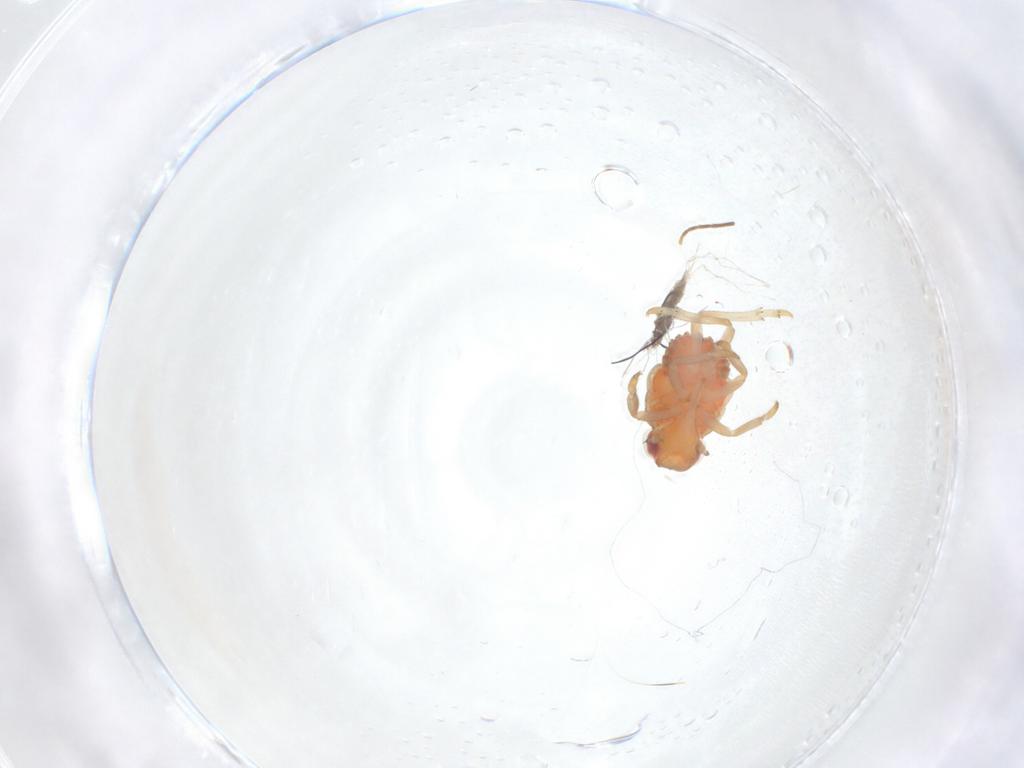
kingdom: Animalia
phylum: Arthropoda
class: Insecta
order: Hemiptera
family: Fulgoroidea_incertae_sedis
